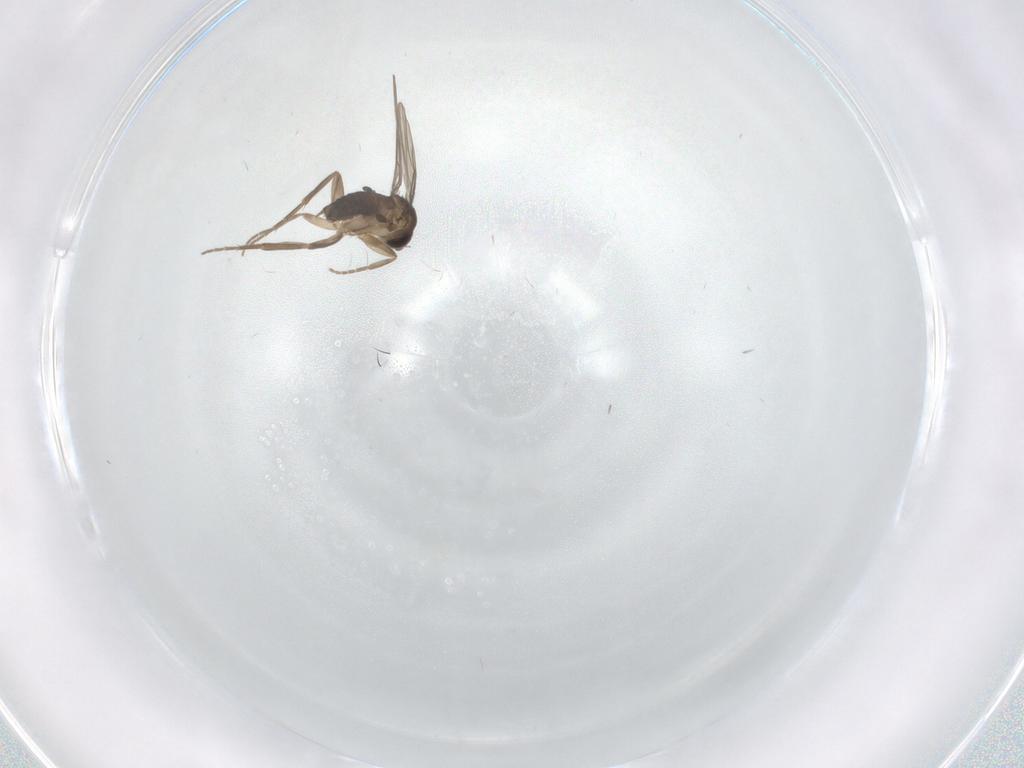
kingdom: Animalia
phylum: Arthropoda
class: Insecta
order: Diptera
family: Phoridae
